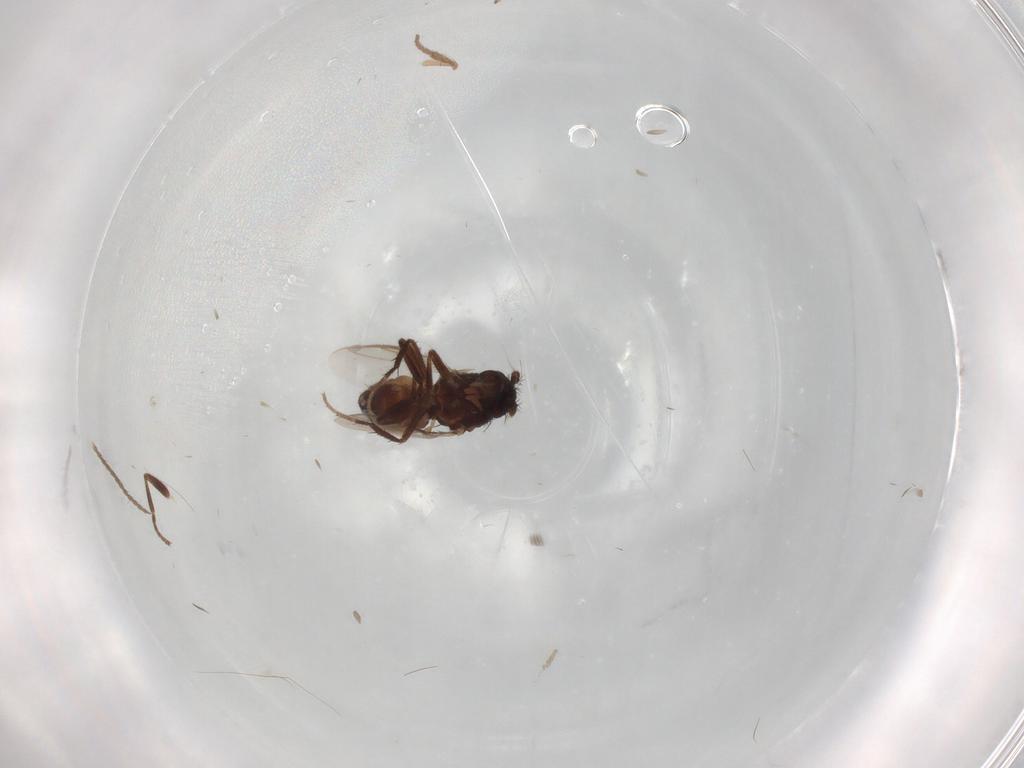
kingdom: Animalia
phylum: Arthropoda
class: Insecta
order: Diptera
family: Sphaeroceridae
